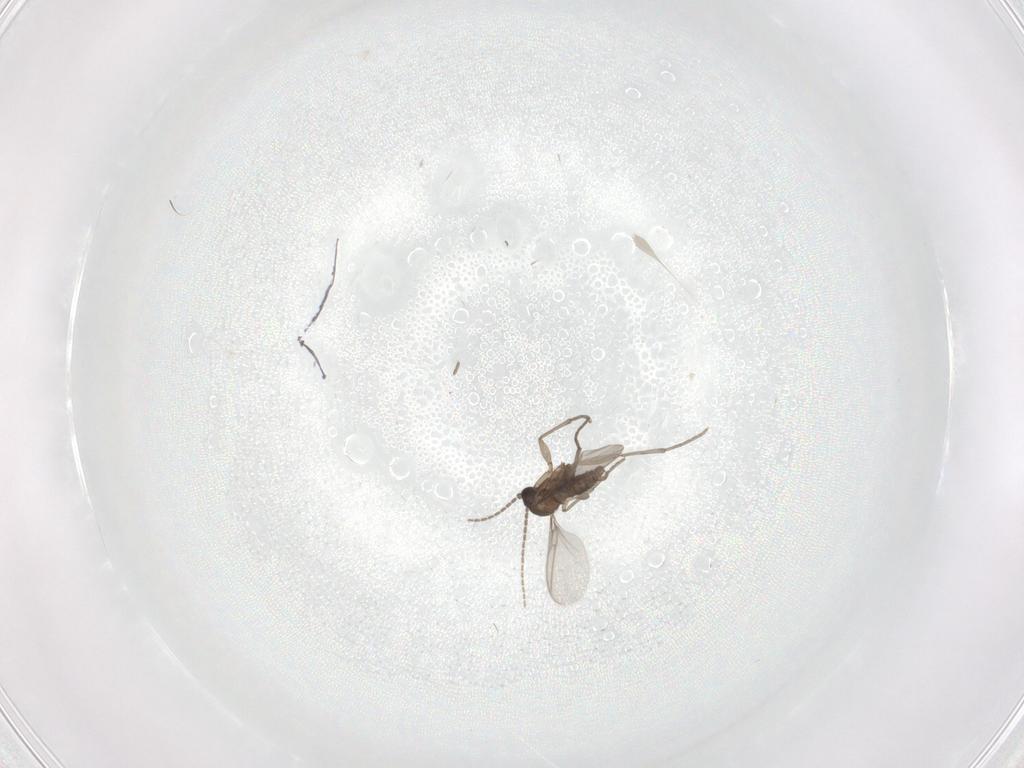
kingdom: Animalia
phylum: Arthropoda
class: Insecta
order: Diptera
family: Sciaridae
